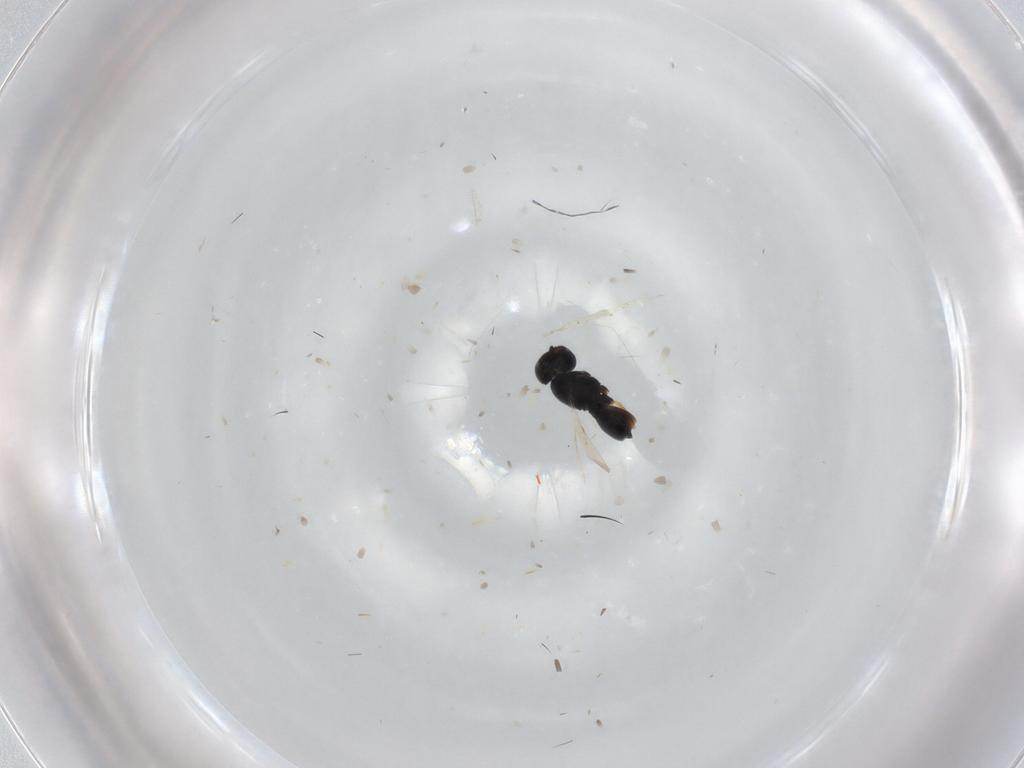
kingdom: Animalia
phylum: Arthropoda
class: Insecta
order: Hymenoptera
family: Scelionidae
